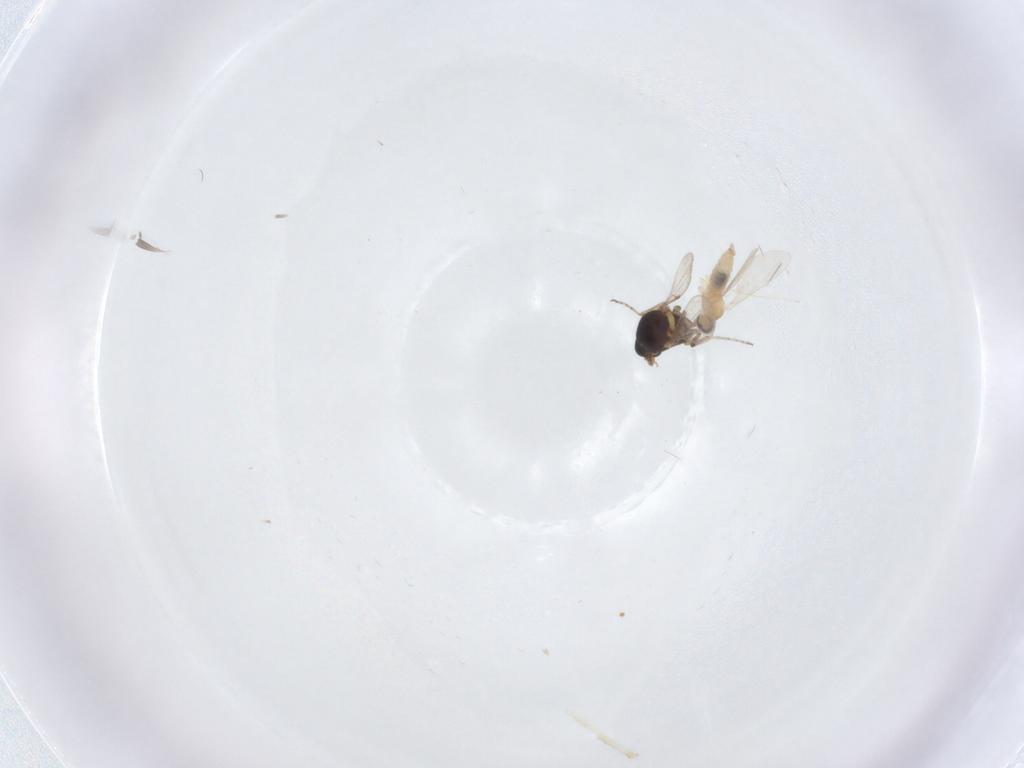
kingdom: Animalia
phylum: Arthropoda
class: Insecta
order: Diptera
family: Ceratopogonidae
